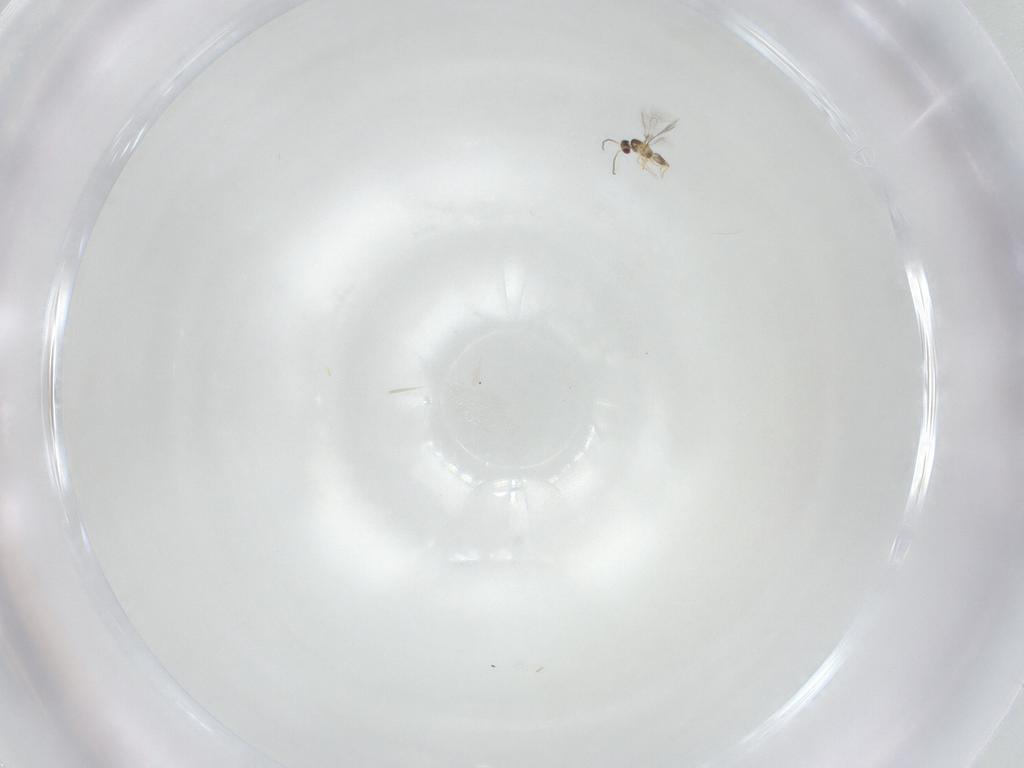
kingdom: Animalia
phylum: Arthropoda
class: Insecta
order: Hymenoptera
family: Mymaridae
